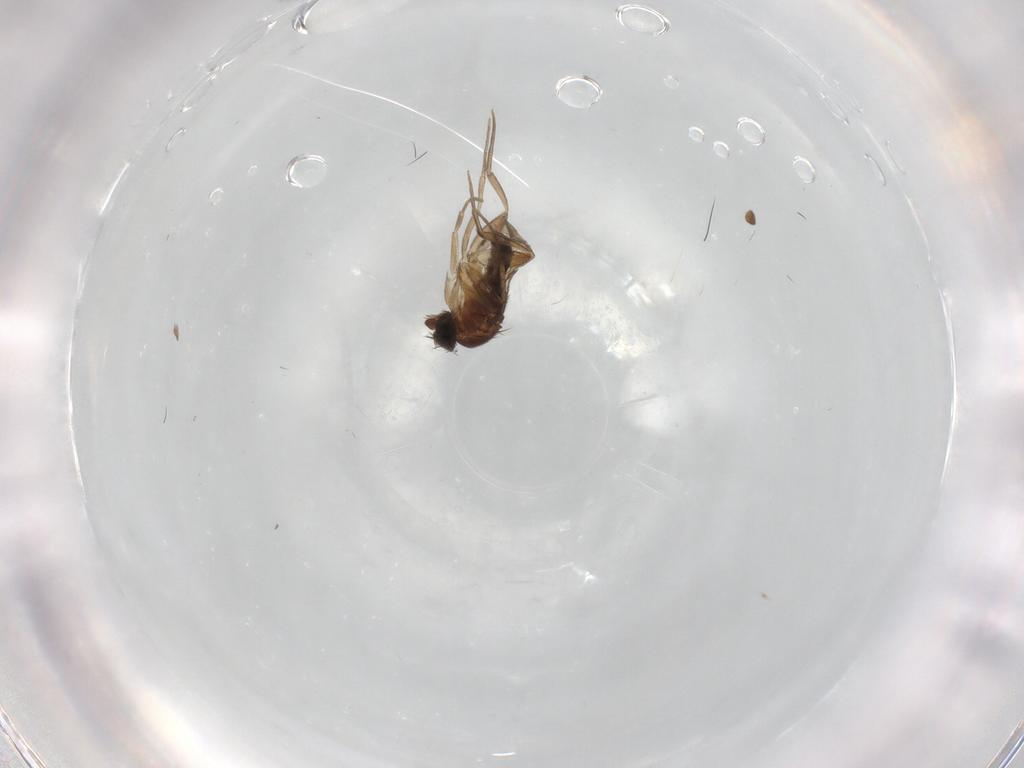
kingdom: Animalia
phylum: Arthropoda
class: Insecta
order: Diptera
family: Phoridae
